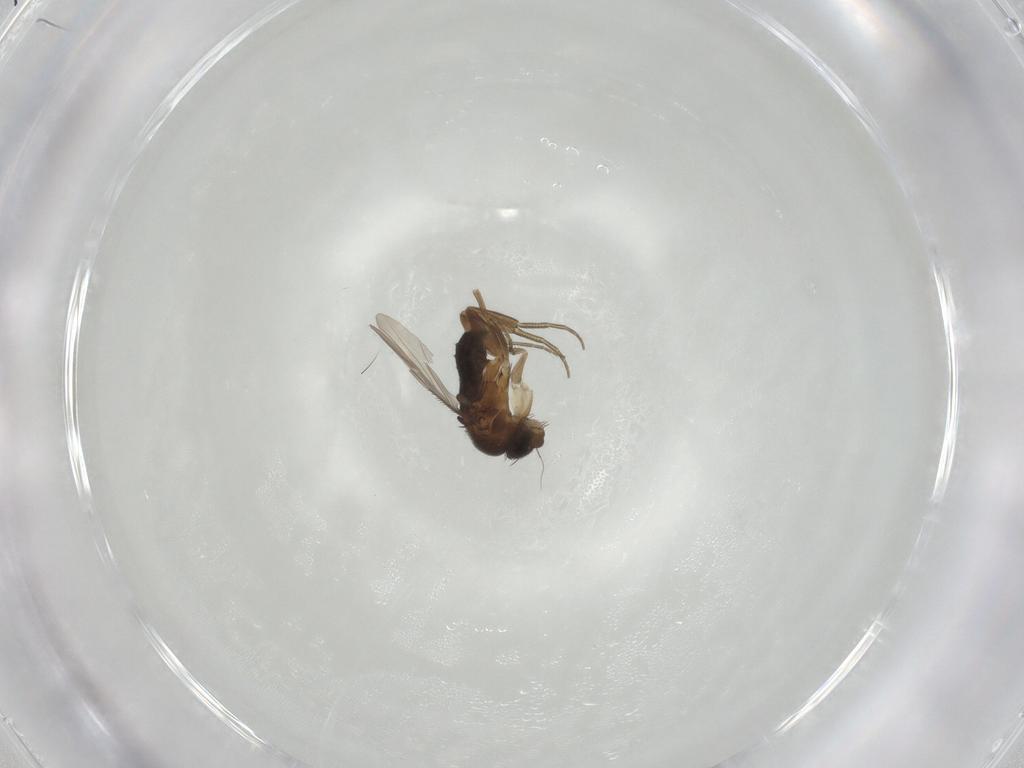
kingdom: Animalia
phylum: Arthropoda
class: Insecta
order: Diptera
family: Phoridae
